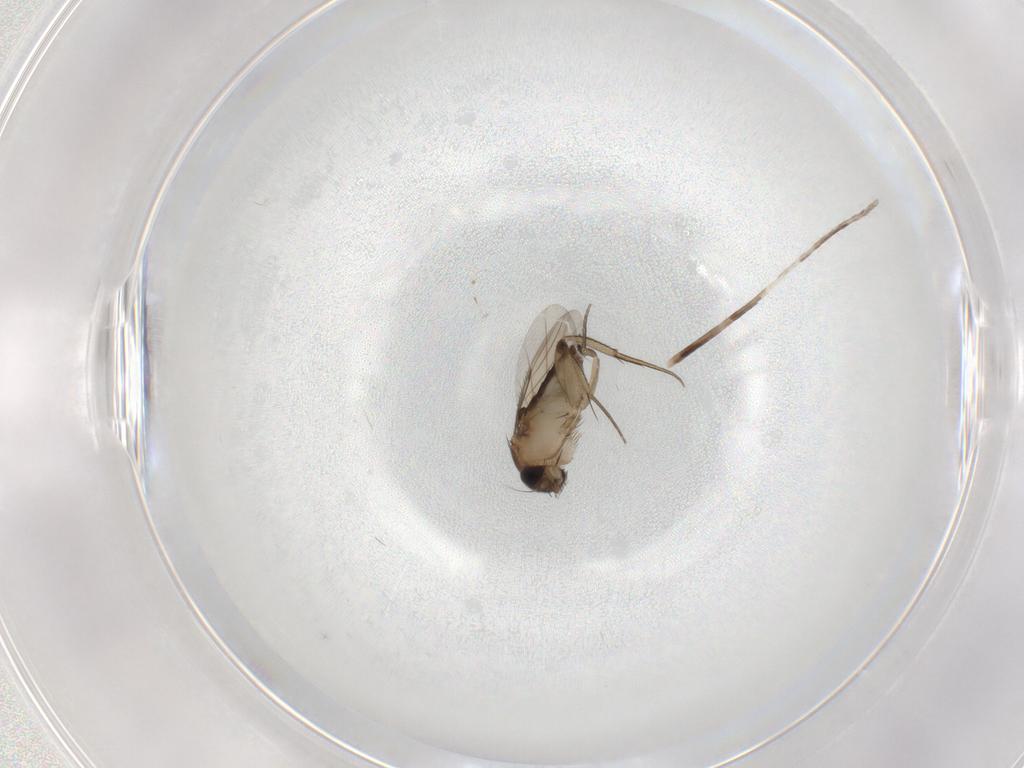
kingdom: Animalia
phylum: Arthropoda
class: Insecta
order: Diptera
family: Phoridae
